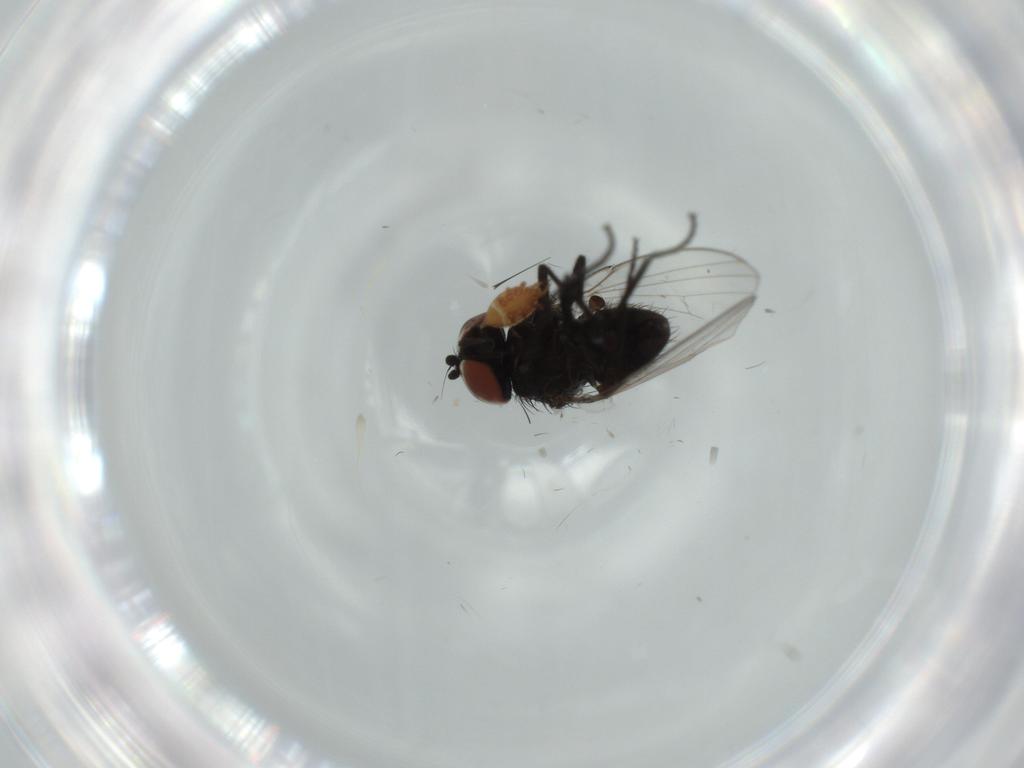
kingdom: Animalia
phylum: Arthropoda
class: Insecta
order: Diptera
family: Milichiidae
